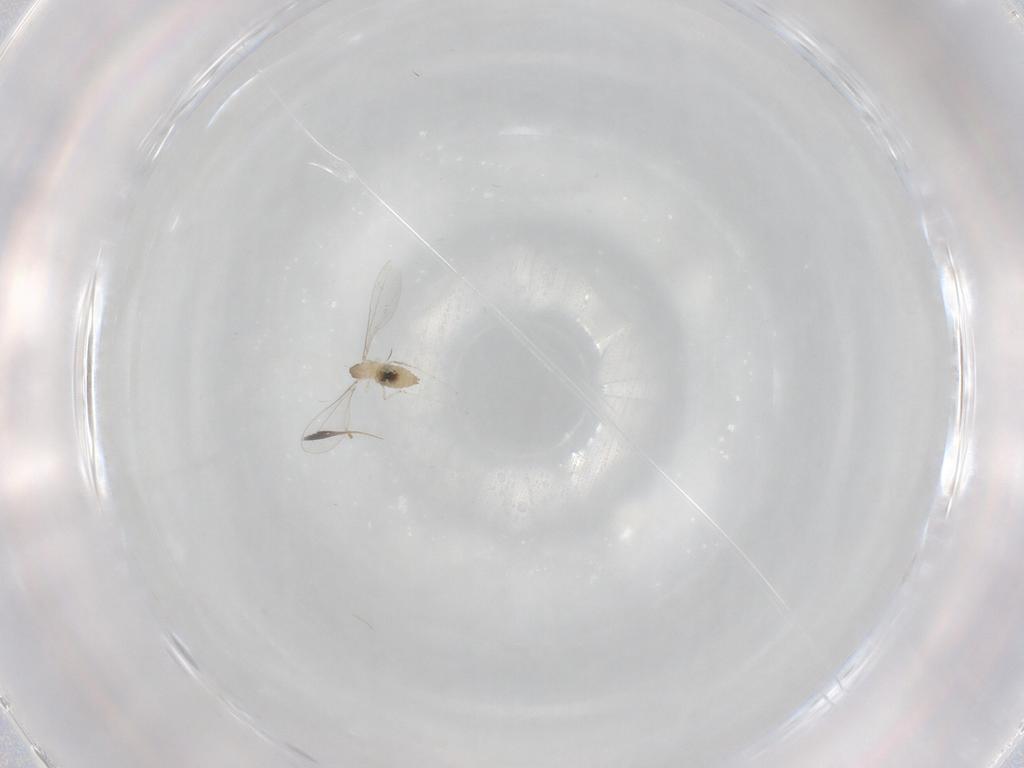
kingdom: Animalia
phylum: Arthropoda
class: Insecta
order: Diptera
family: Cecidomyiidae
